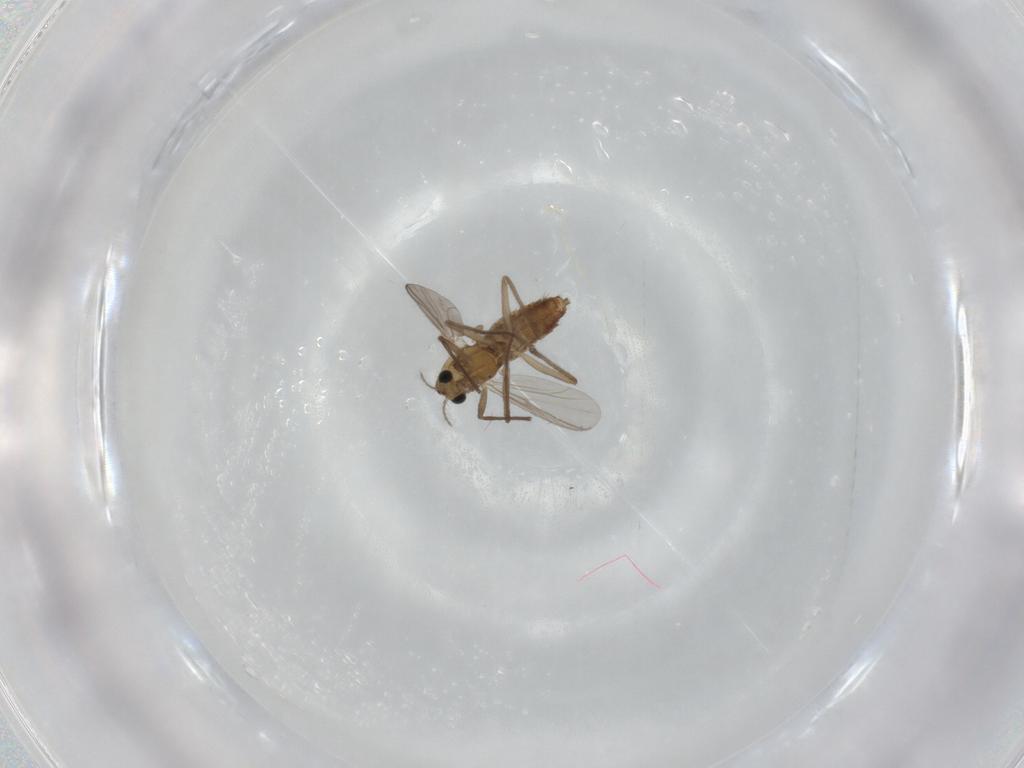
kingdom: Animalia
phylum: Arthropoda
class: Insecta
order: Diptera
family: Chironomidae
